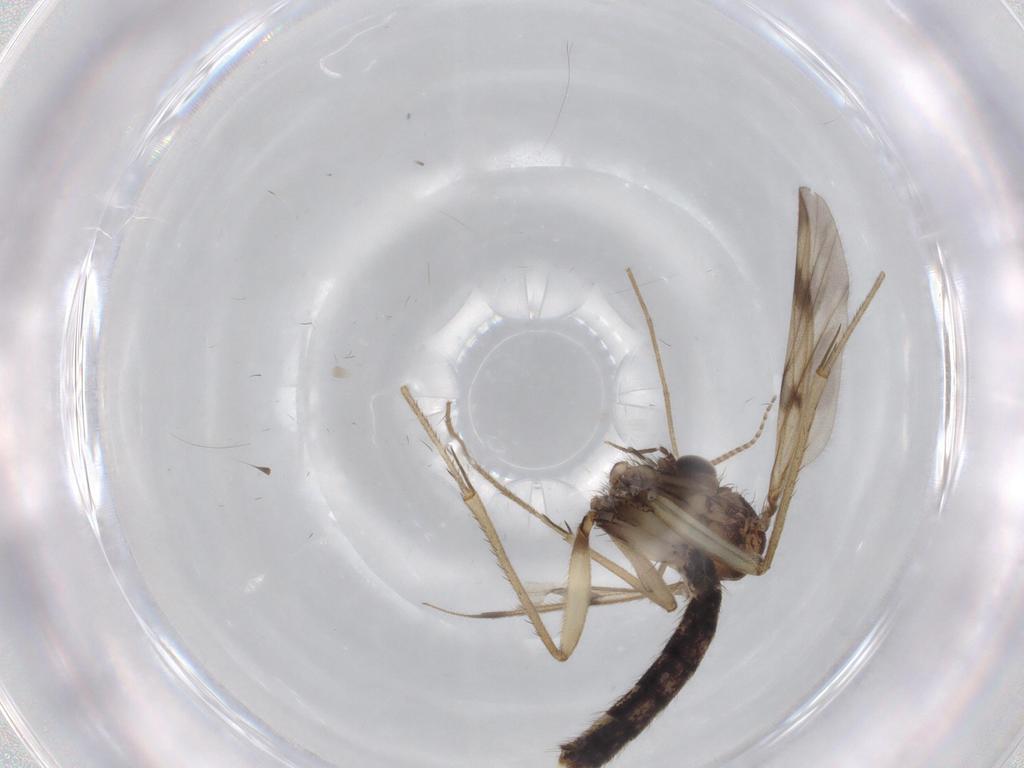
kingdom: Animalia
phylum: Arthropoda
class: Insecta
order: Diptera
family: Mycetophilidae
